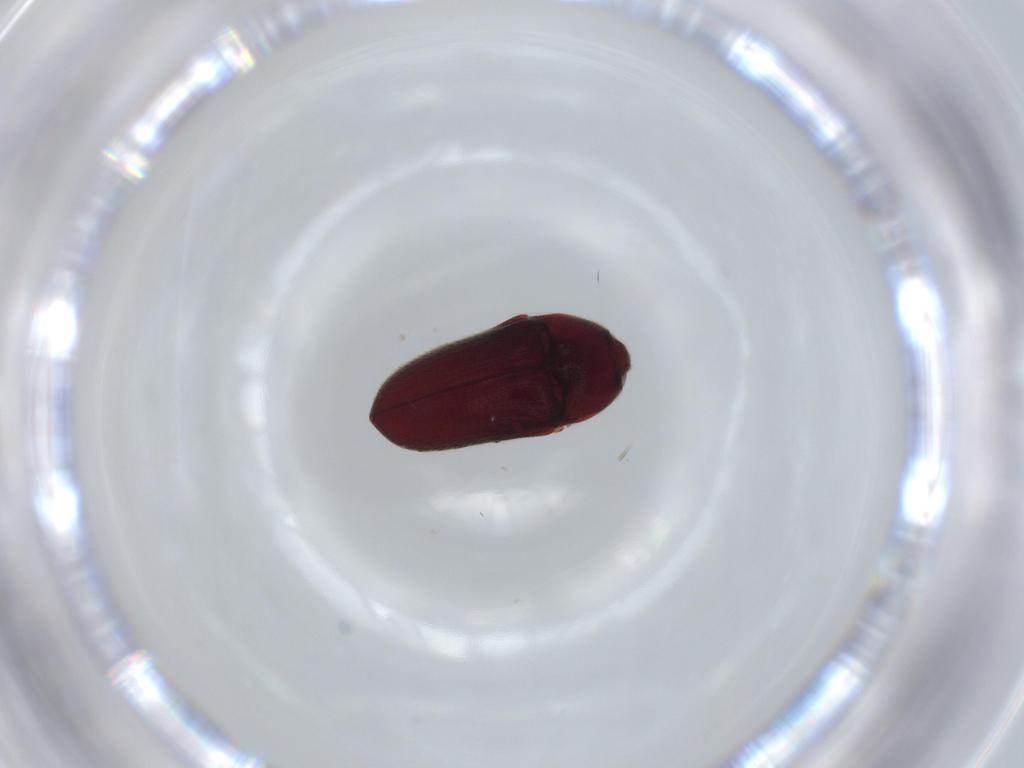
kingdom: Animalia
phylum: Arthropoda
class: Insecta
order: Coleoptera
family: Throscidae
